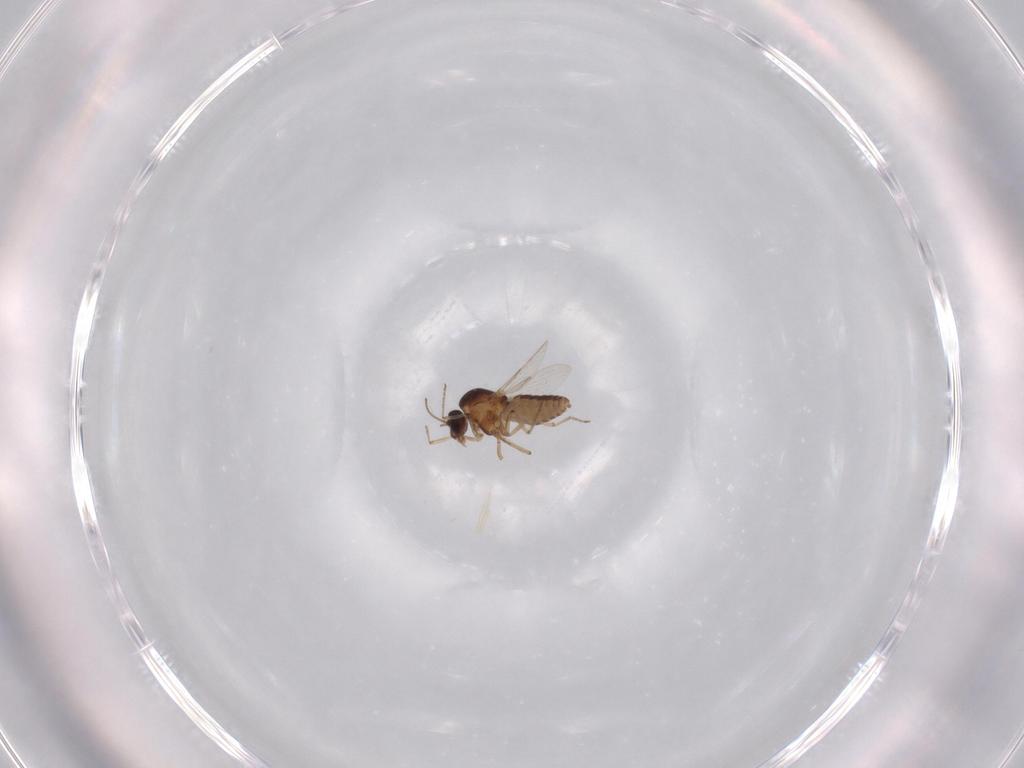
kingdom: Animalia
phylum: Arthropoda
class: Insecta
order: Diptera
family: Ceratopogonidae
